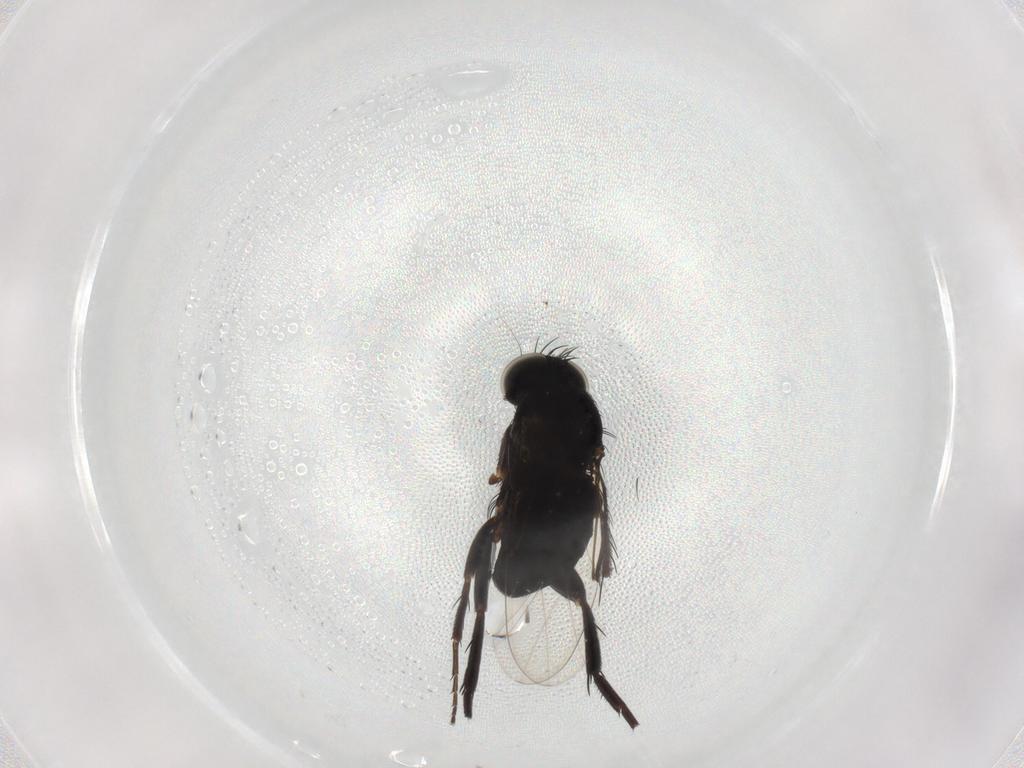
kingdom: Animalia
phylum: Arthropoda
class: Insecta
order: Diptera
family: Phoridae
